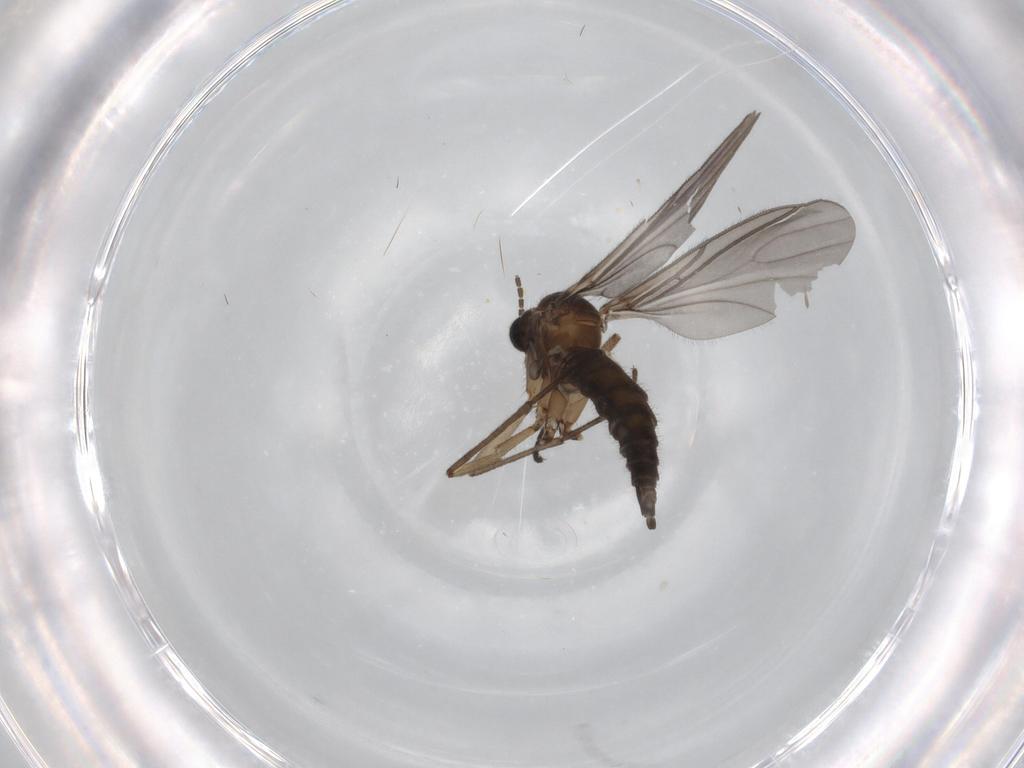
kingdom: Animalia
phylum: Arthropoda
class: Insecta
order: Diptera
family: Sciaridae
